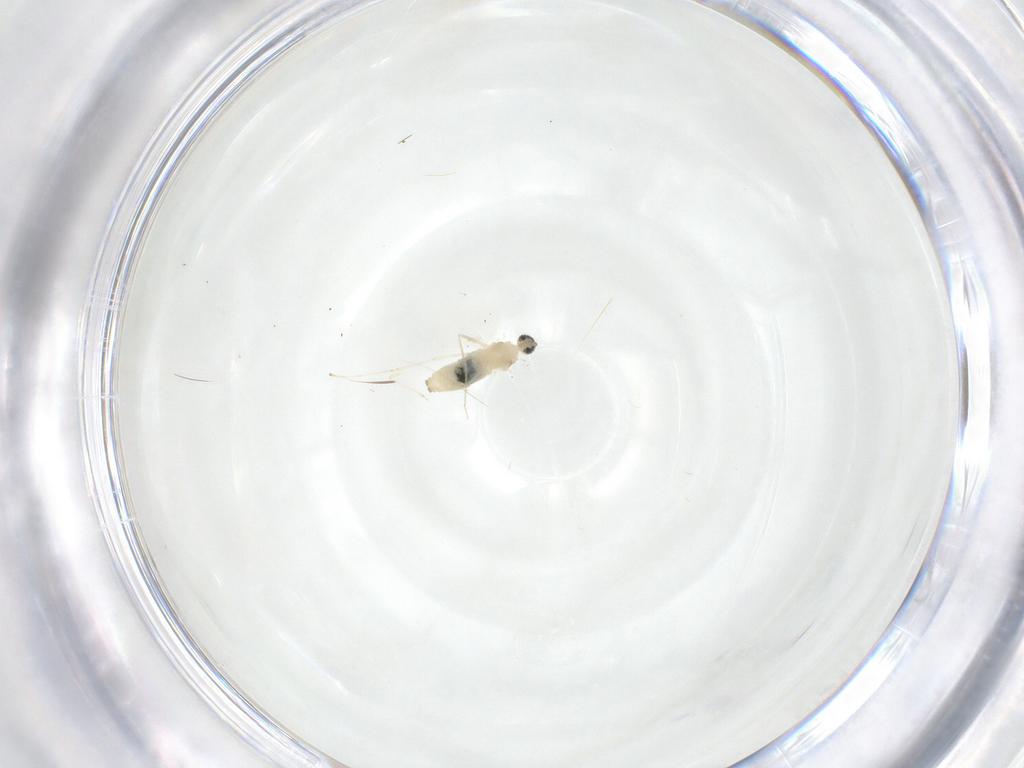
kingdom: Animalia
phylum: Arthropoda
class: Insecta
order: Diptera
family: Cecidomyiidae
